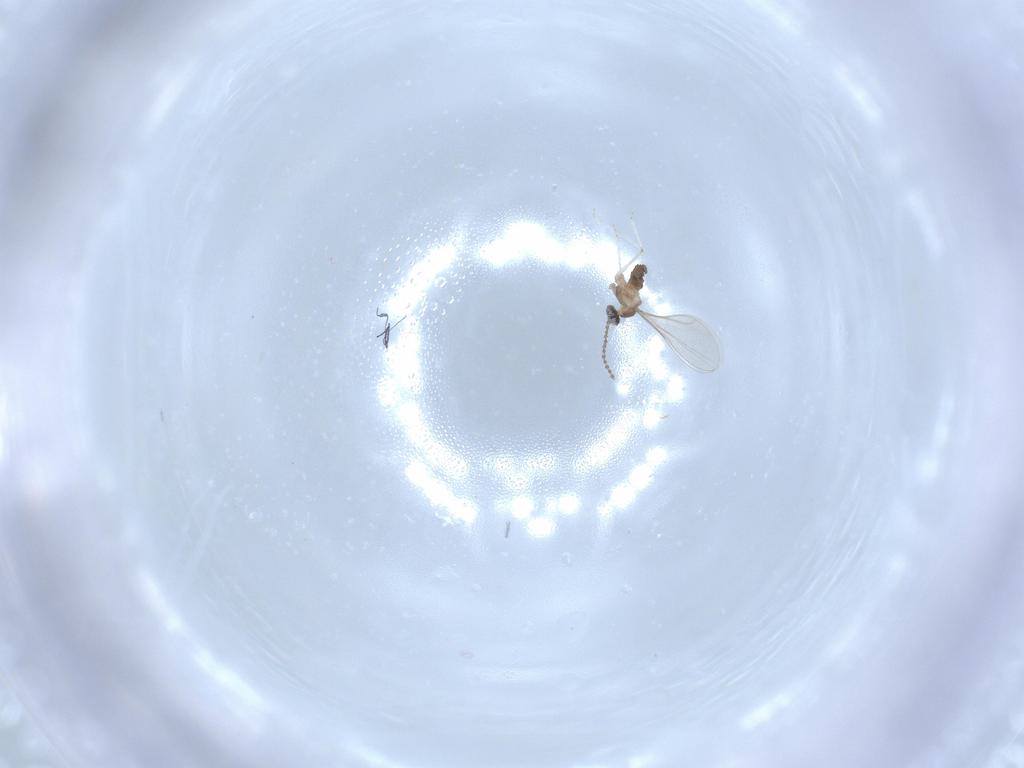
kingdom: Animalia
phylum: Arthropoda
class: Insecta
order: Diptera
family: Cecidomyiidae
